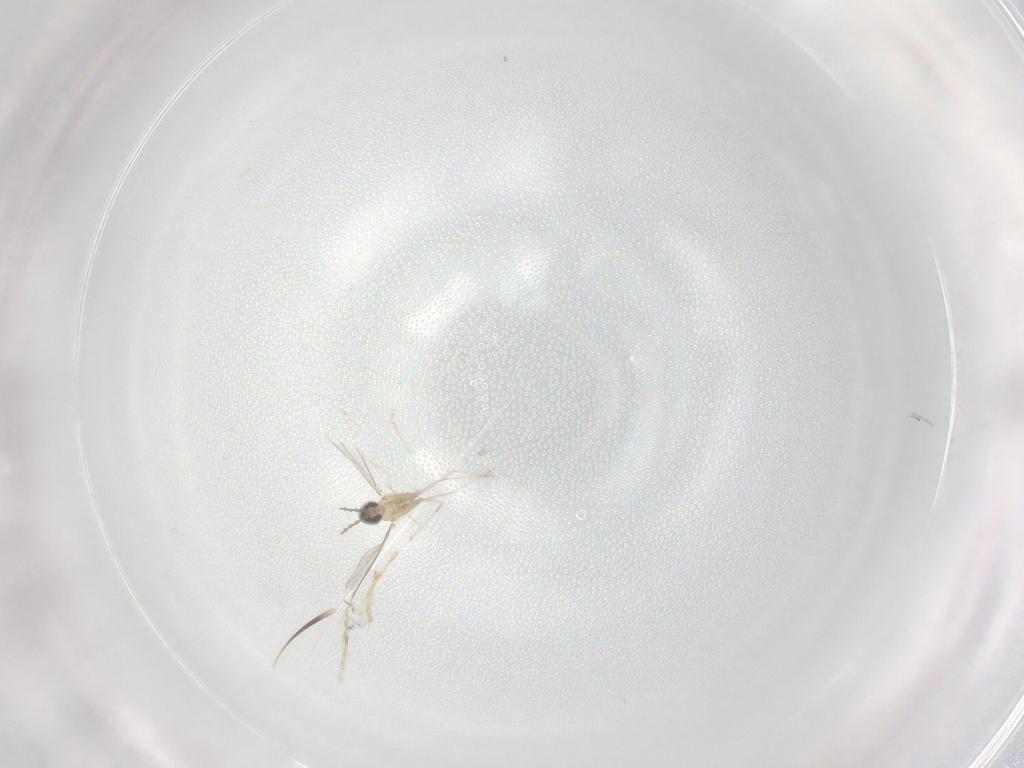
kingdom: Animalia
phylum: Arthropoda
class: Insecta
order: Diptera
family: Cecidomyiidae
